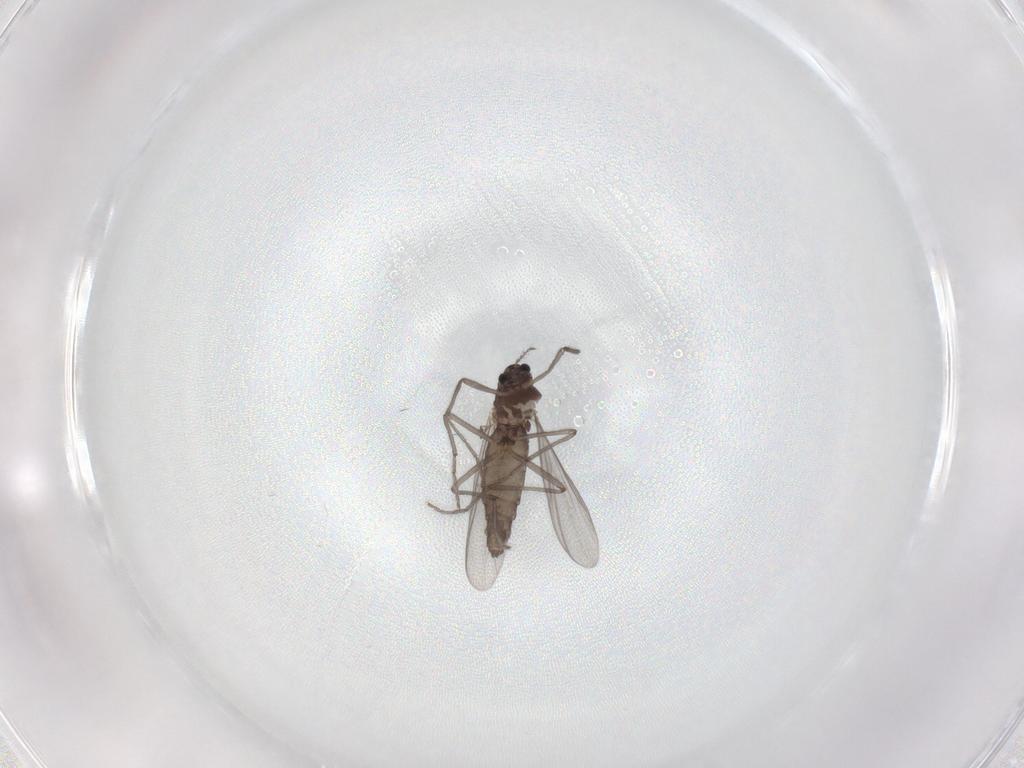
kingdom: Animalia
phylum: Arthropoda
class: Insecta
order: Diptera
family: Chironomidae
